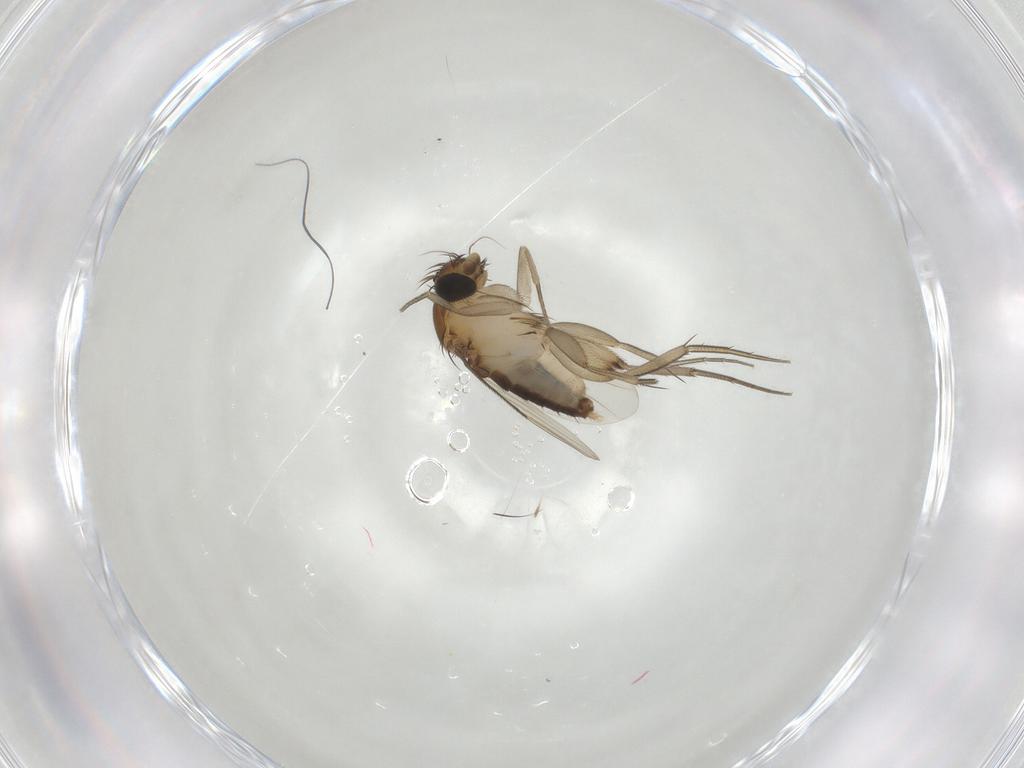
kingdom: Animalia
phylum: Arthropoda
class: Insecta
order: Diptera
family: Phoridae
